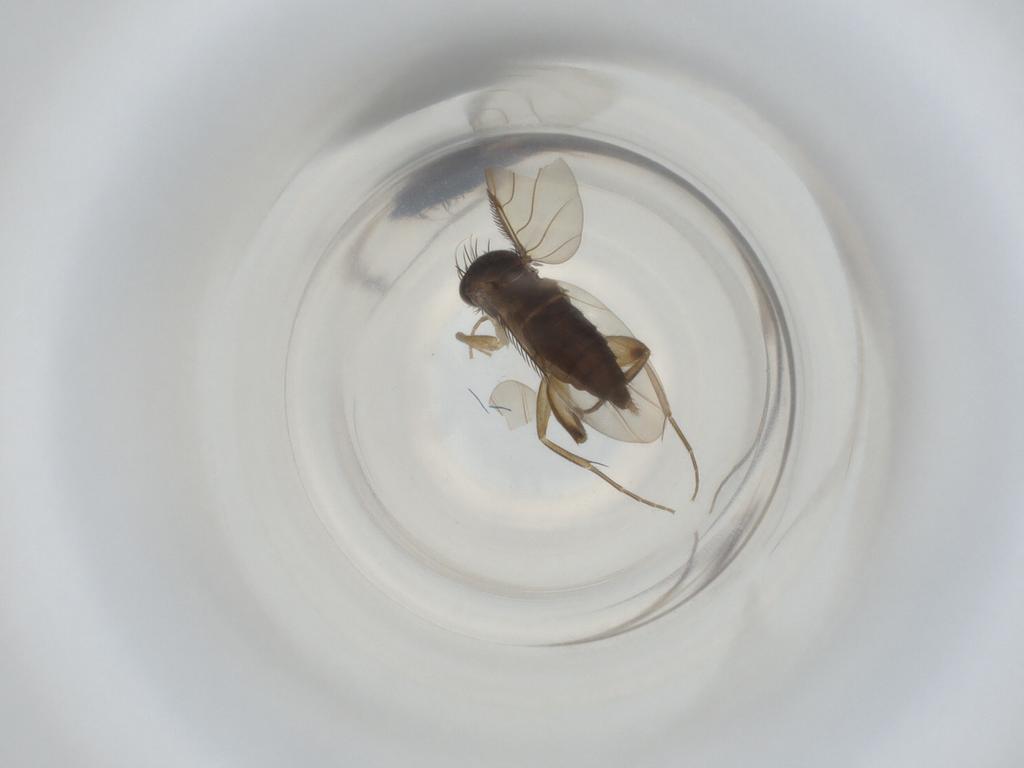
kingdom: Animalia
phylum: Arthropoda
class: Insecta
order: Diptera
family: Phoridae
